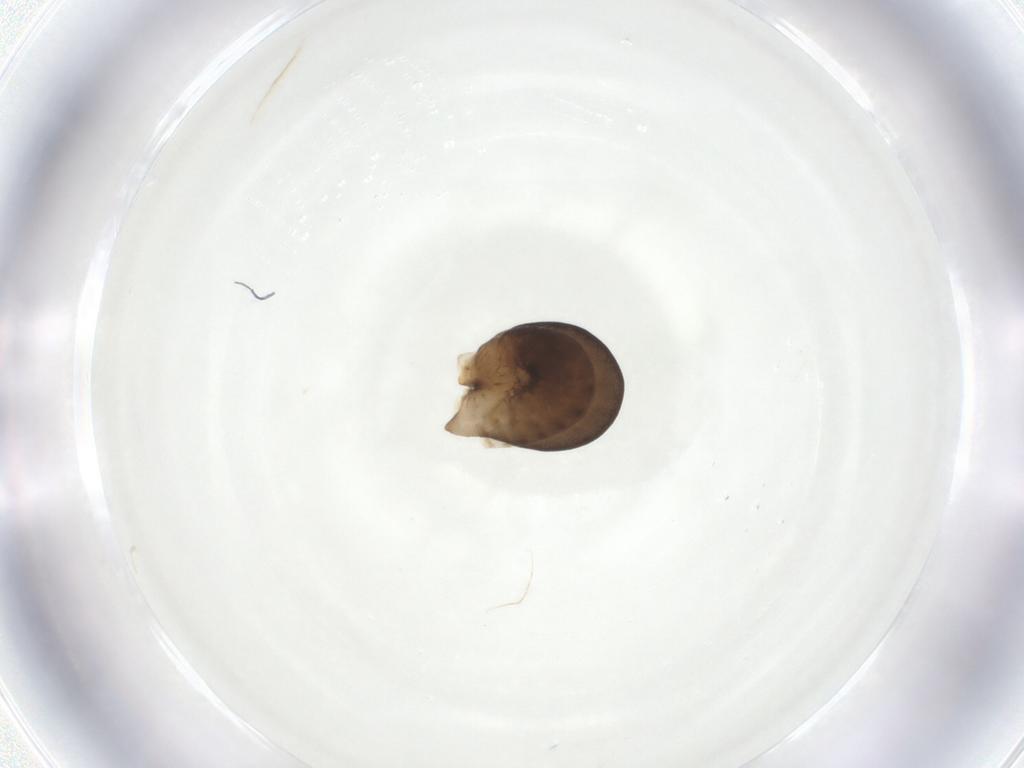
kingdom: Animalia
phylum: Arthropoda
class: Insecta
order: Hymenoptera
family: Dryinidae
